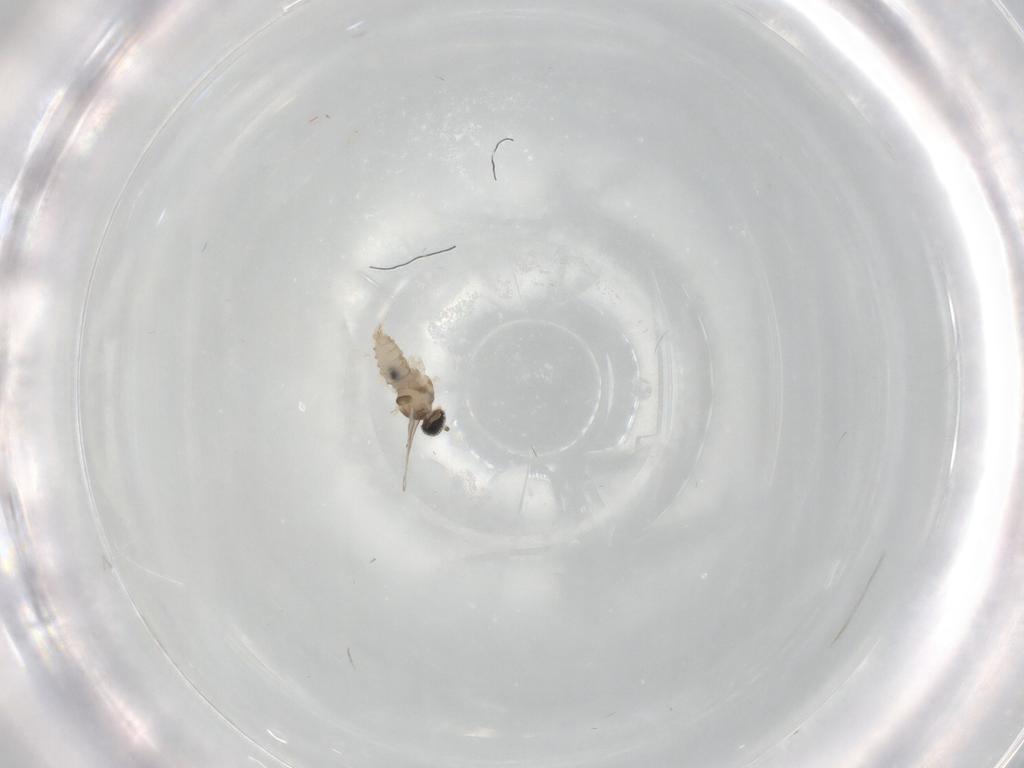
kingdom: Animalia
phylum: Arthropoda
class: Insecta
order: Diptera
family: Cecidomyiidae
